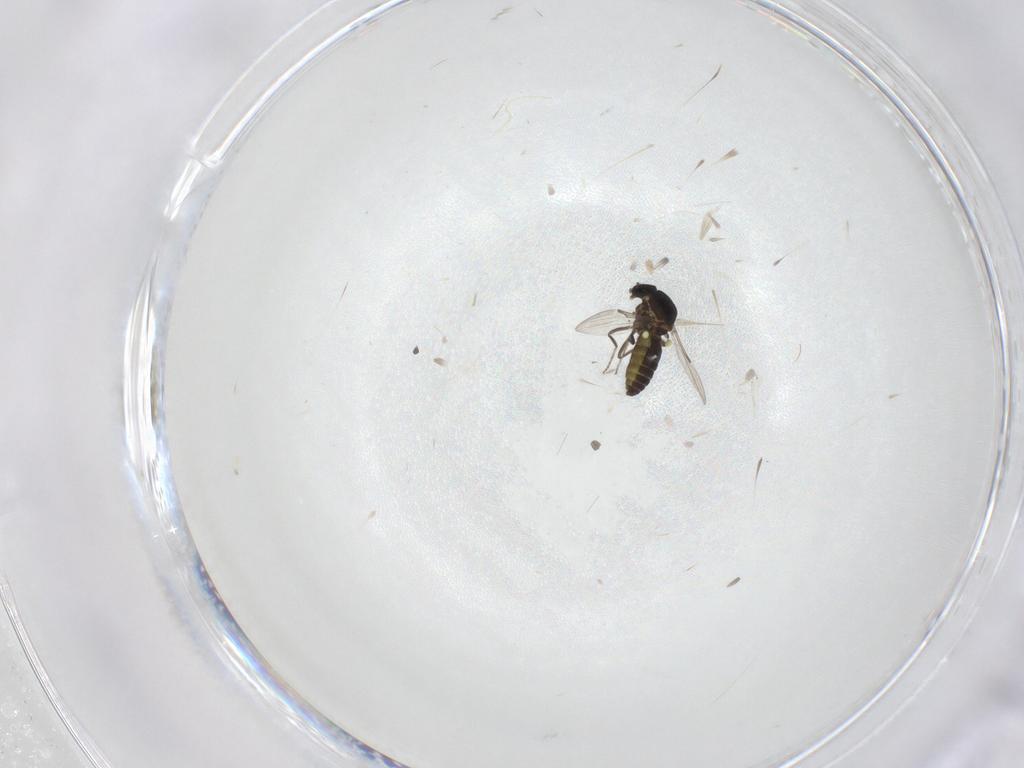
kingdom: Animalia
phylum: Arthropoda
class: Insecta
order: Diptera
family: Ceratopogonidae
